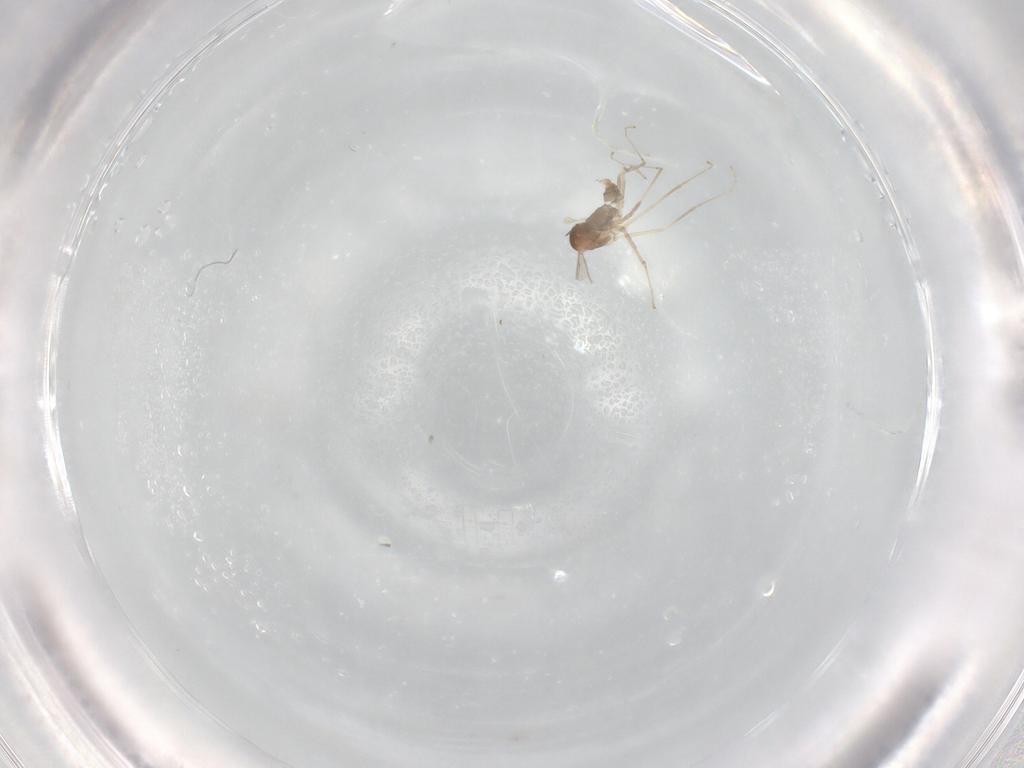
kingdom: Animalia
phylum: Arthropoda
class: Insecta
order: Diptera
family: Cecidomyiidae
